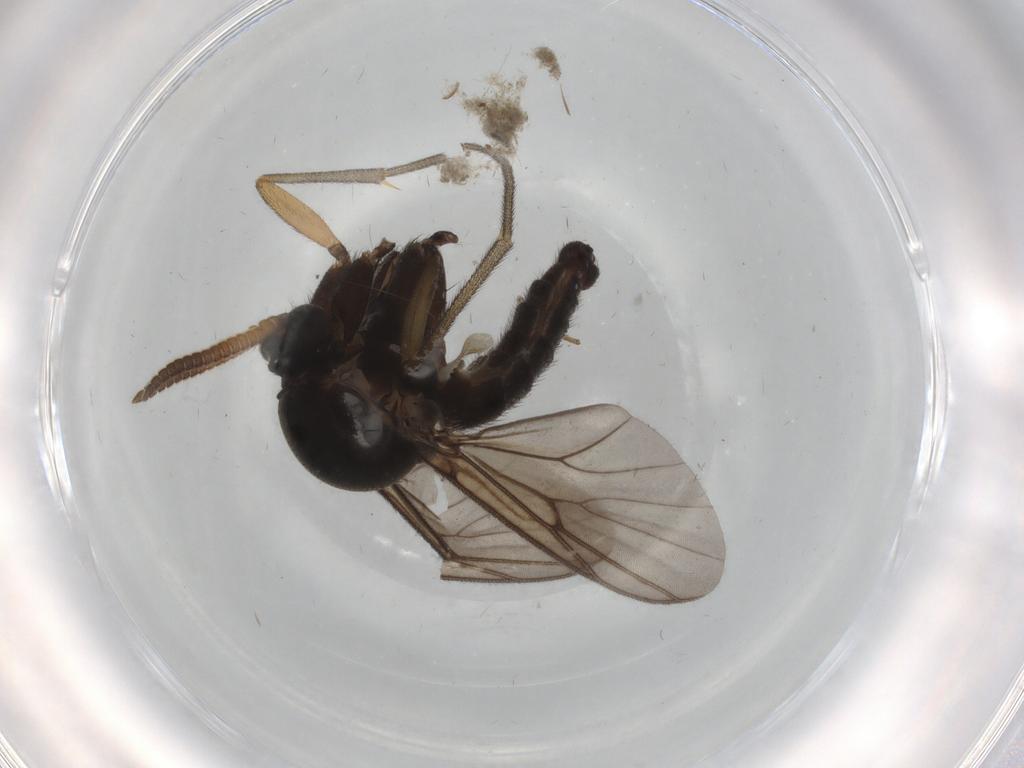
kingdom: Animalia
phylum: Arthropoda
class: Insecta
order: Diptera
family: Mycetophilidae
